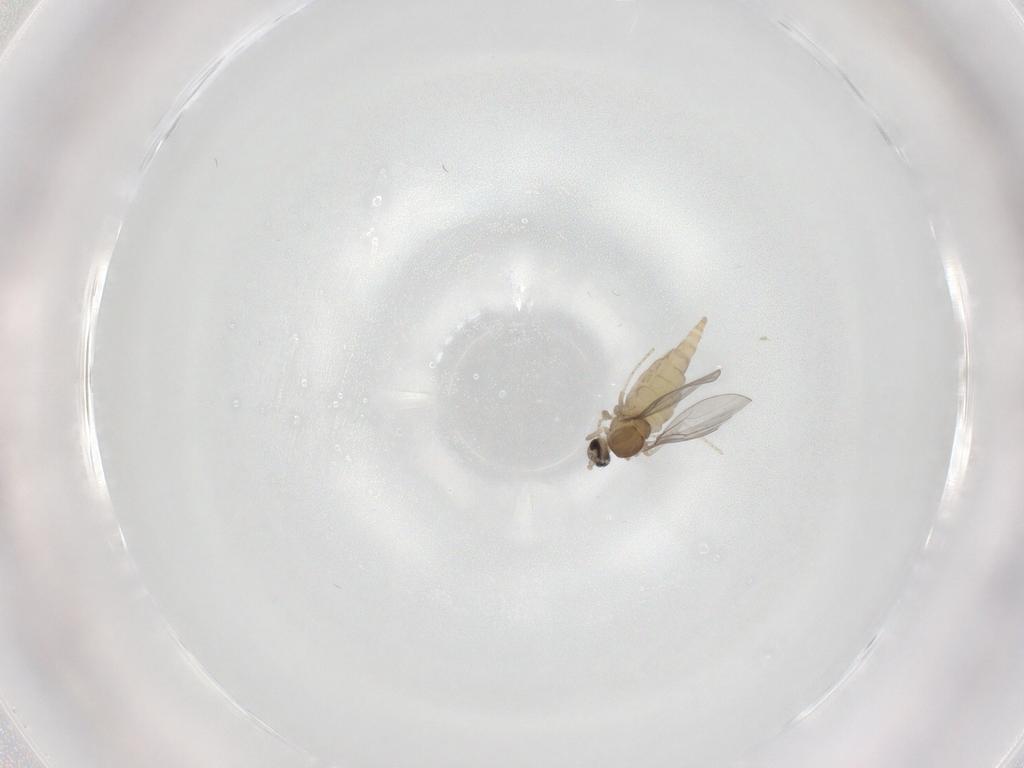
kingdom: Animalia
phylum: Arthropoda
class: Insecta
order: Diptera
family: Cecidomyiidae
